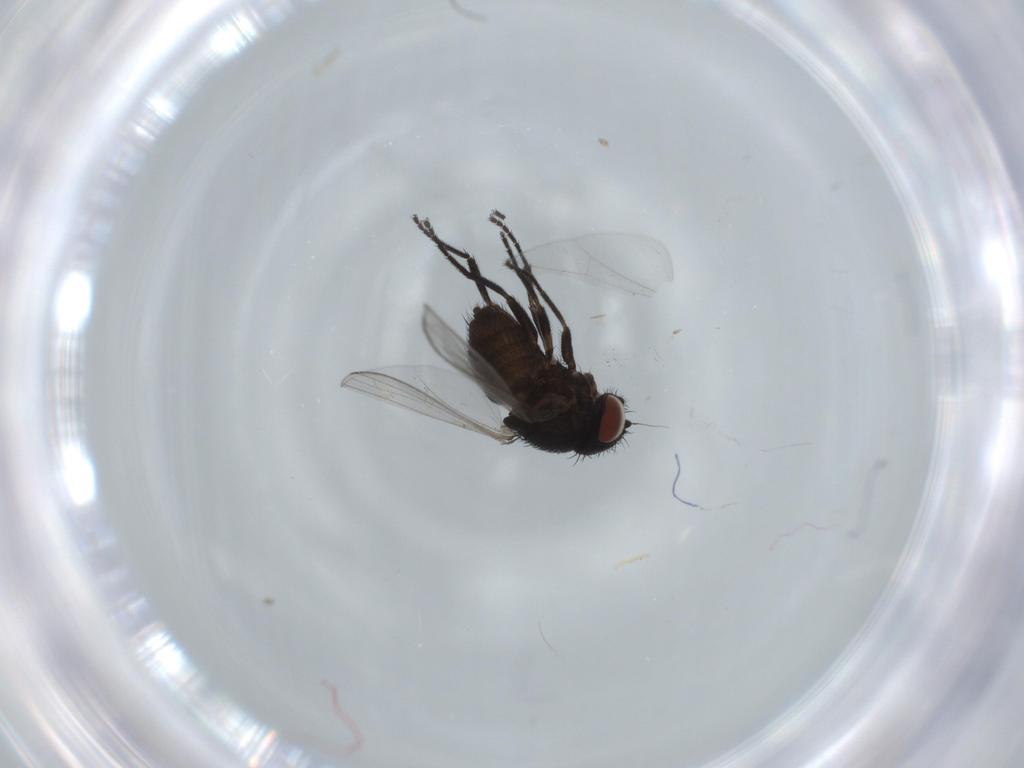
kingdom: Animalia
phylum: Arthropoda
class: Insecta
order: Diptera
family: Milichiidae
